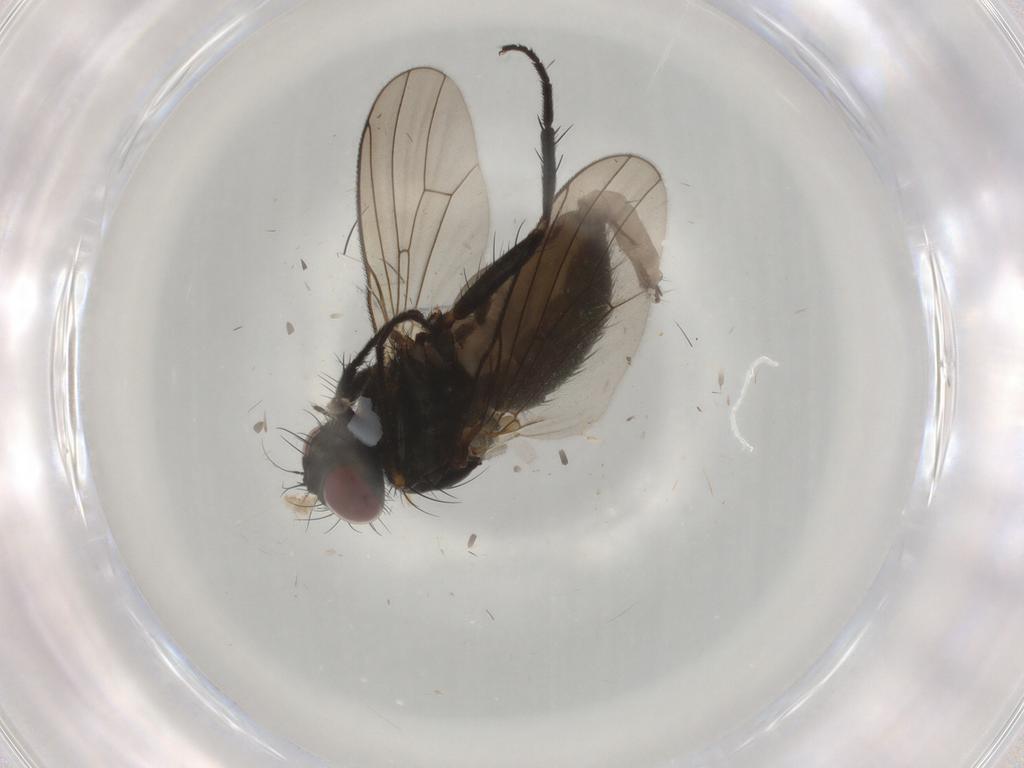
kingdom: Animalia
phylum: Arthropoda
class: Insecta
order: Diptera
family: Muscidae
